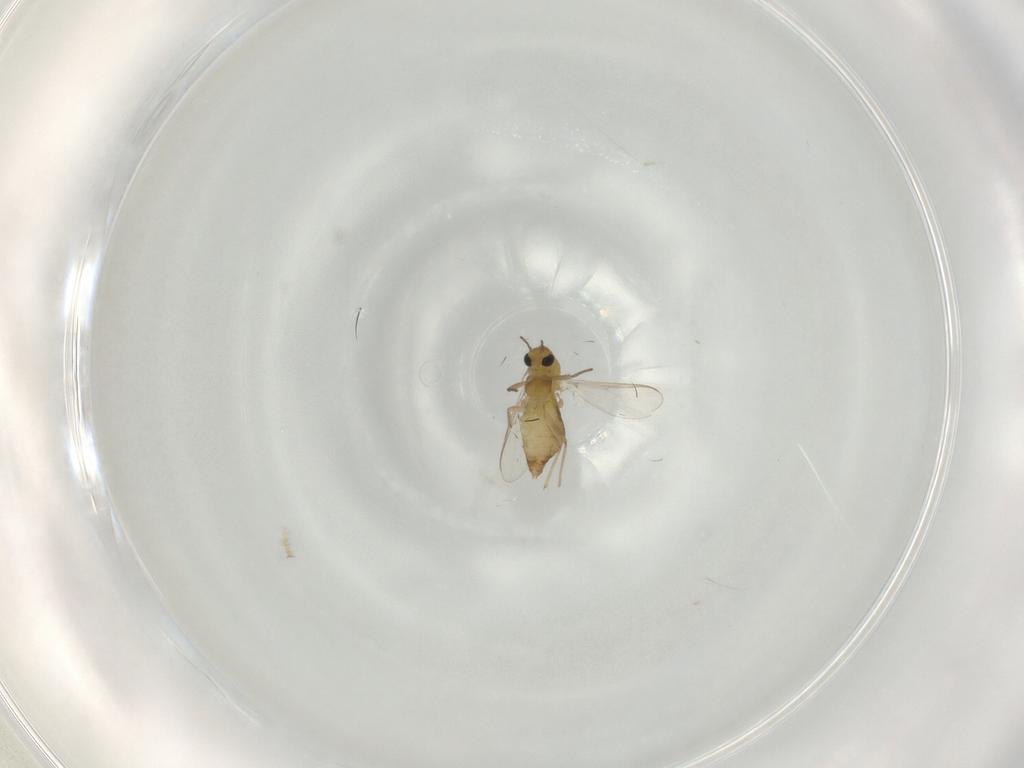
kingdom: Animalia
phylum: Arthropoda
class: Insecta
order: Diptera
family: Chironomidae
